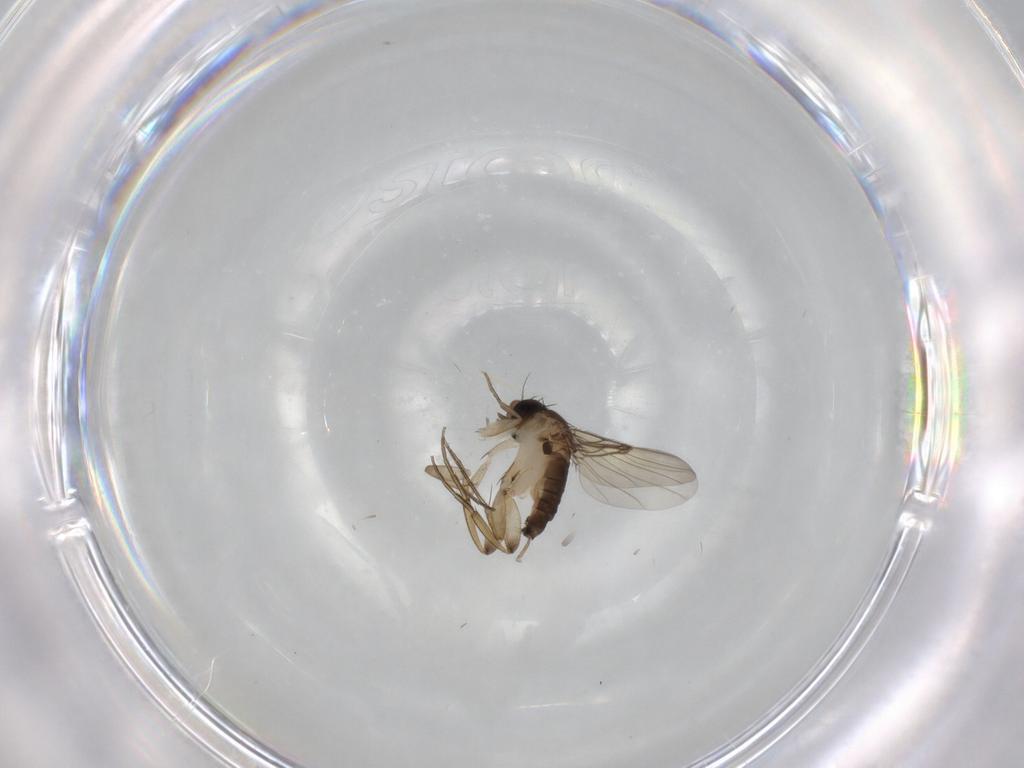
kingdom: Animalia
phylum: Arthropoda
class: Insecta
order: Diptera
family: Phoridae
